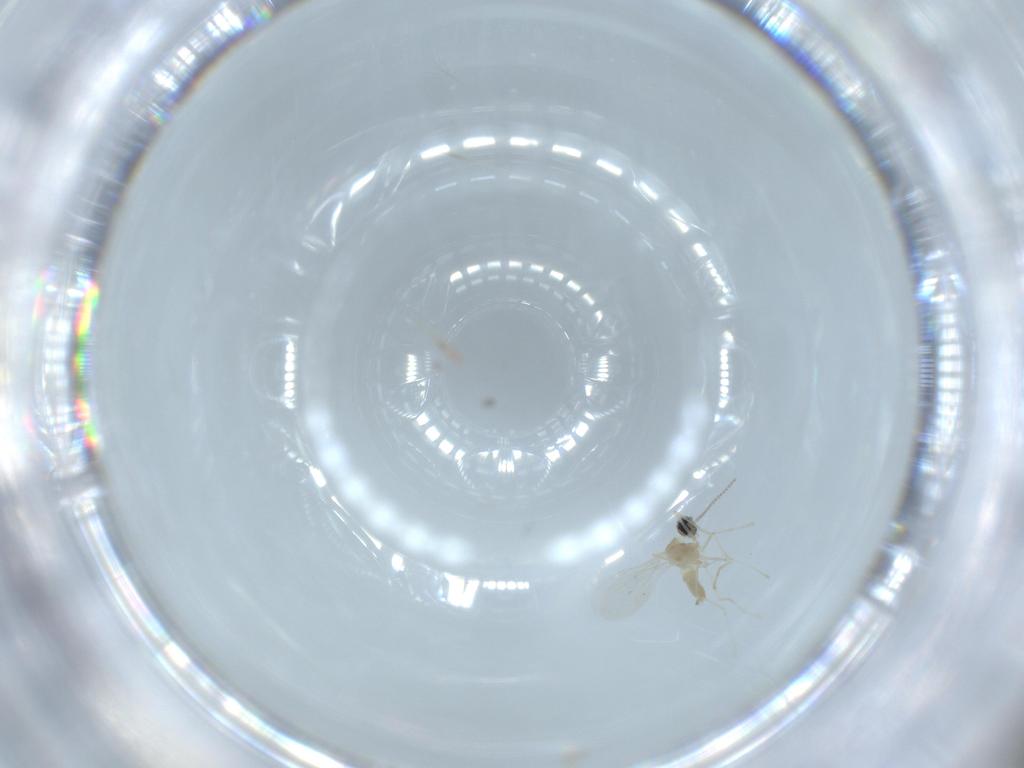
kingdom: Animalia
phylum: Arthropoda
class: Insecta
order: Diptera
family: Cecidomyiidae
